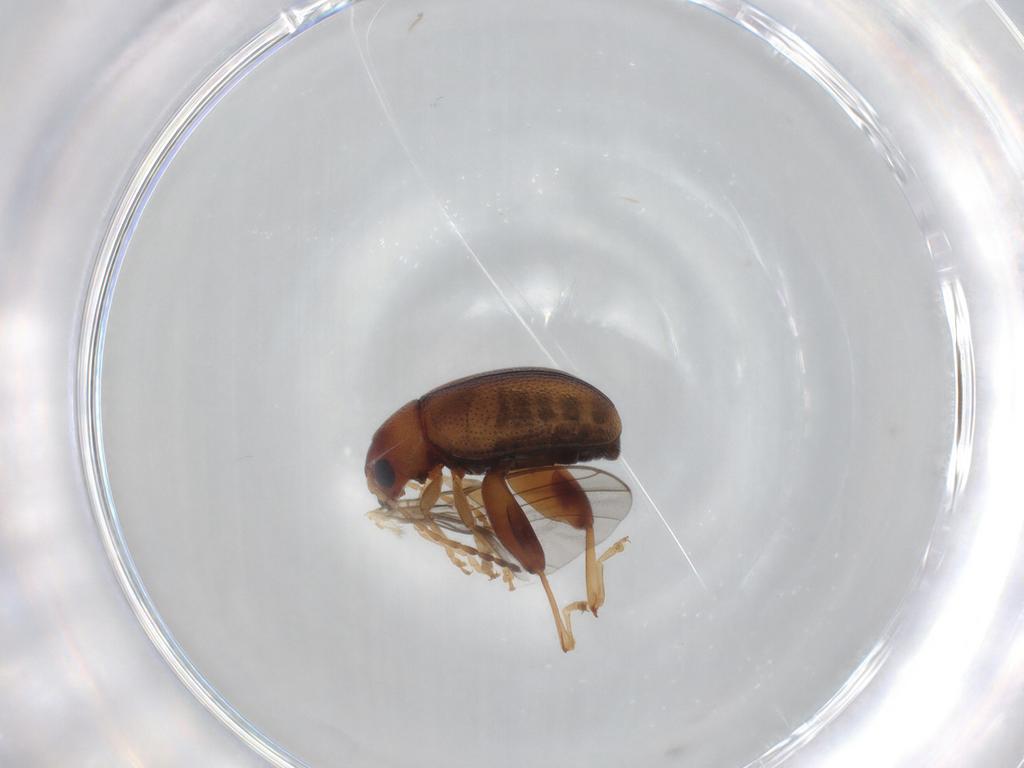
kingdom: Animalia
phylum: Arthropoda
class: Insecta
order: Coleoptera
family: Chrysomelidae
